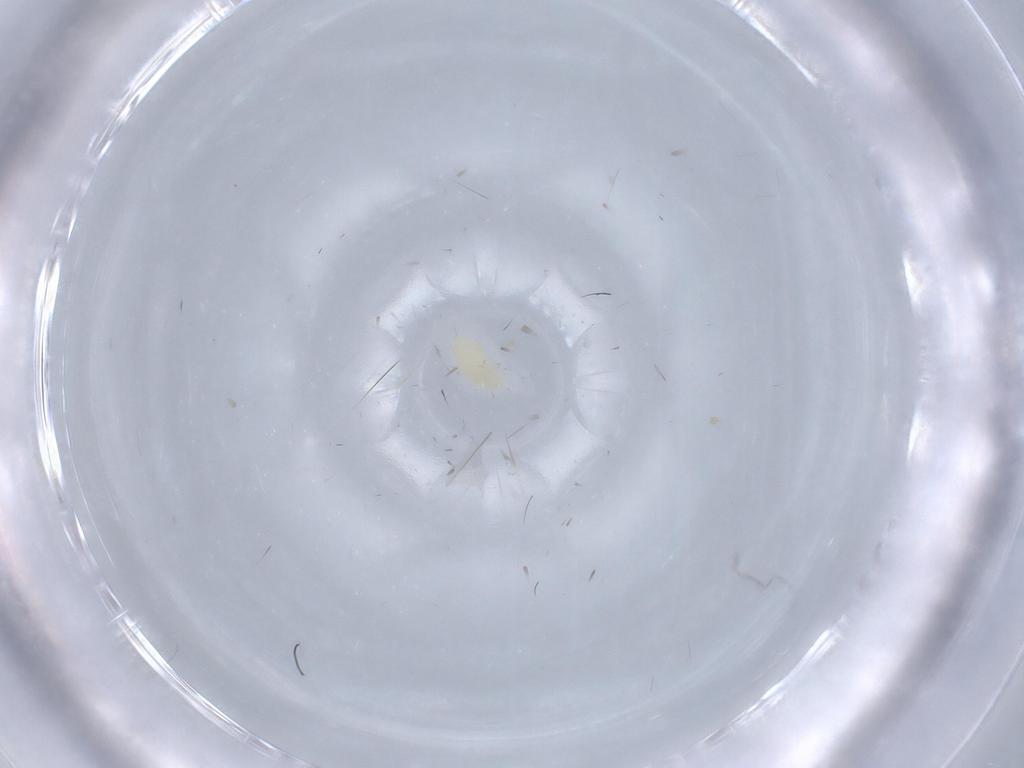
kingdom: Animalia
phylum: Arthropoda
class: Arachnida
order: Trombidiformes
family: Eupodidae
